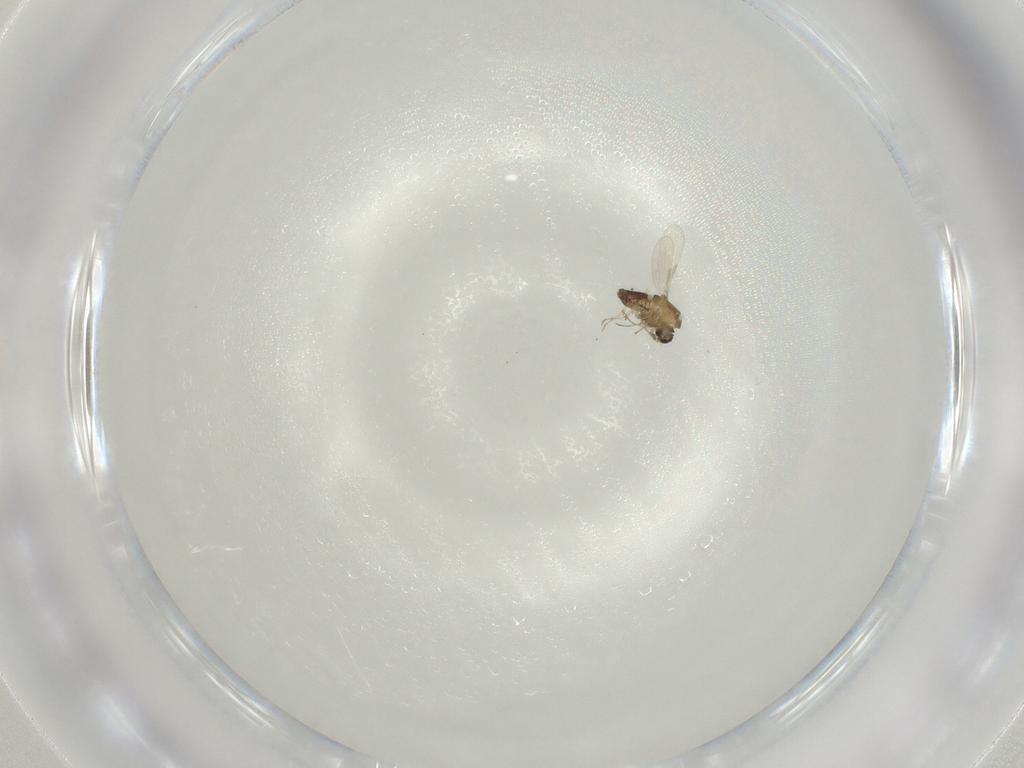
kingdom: Animalia
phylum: Arthropoda
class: Insecta
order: Diptera
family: Chironomidae
